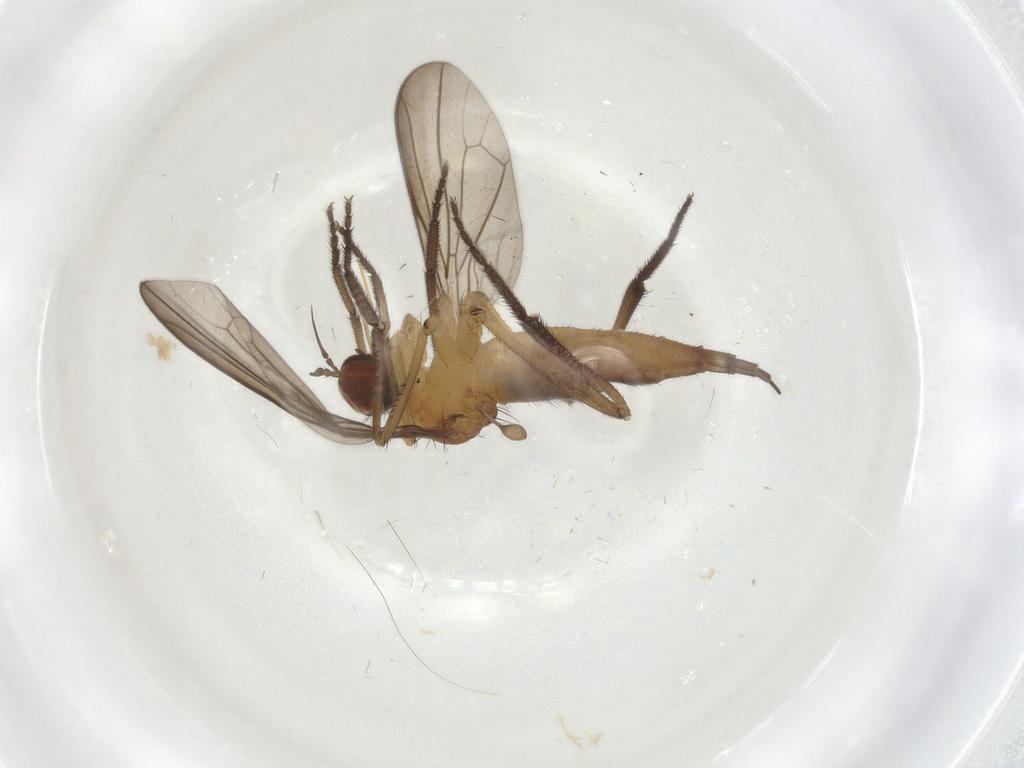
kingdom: Animalia
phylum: Arthropoda
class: Insecta
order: Diptera
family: Empididae
